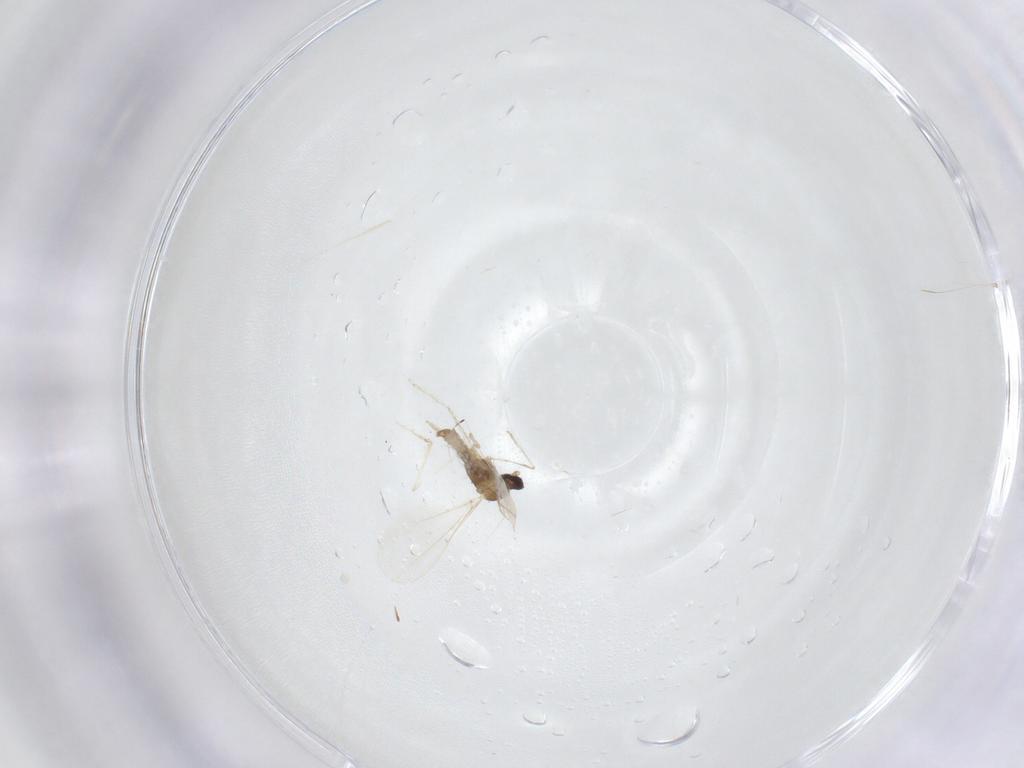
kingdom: Animalia
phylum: Arthropoda
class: Insecta
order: Diptera
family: Cecidomyiidae
